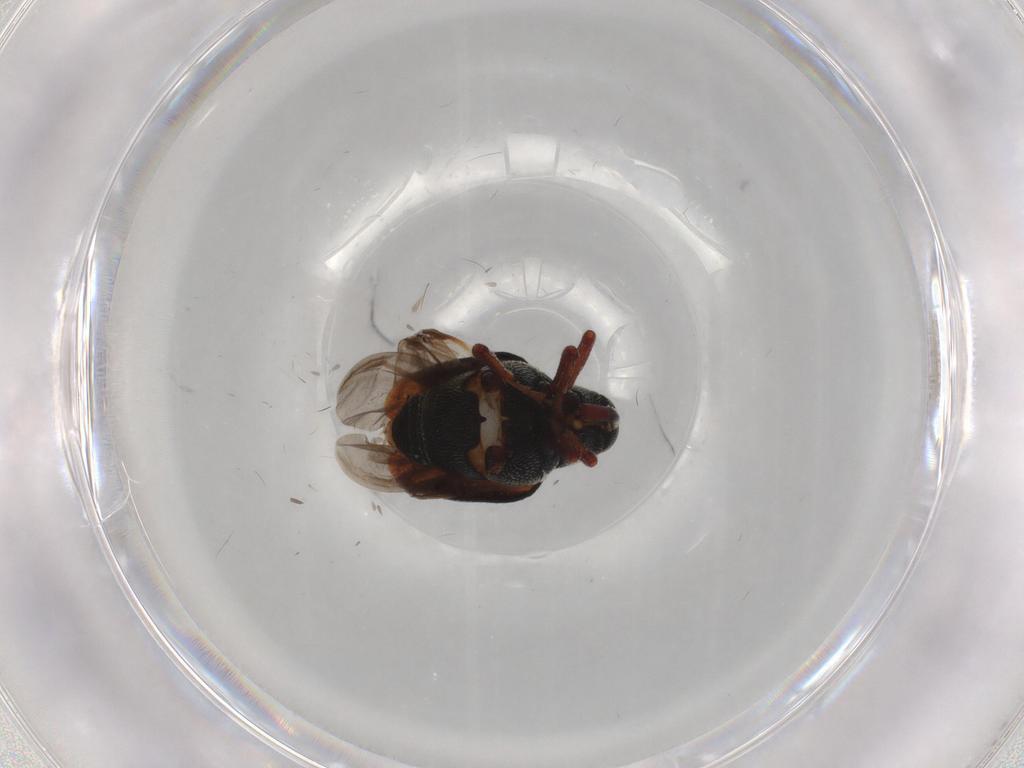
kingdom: Animalia
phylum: Arthropoda
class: Insecta
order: Coleoptera
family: Curculionidae
